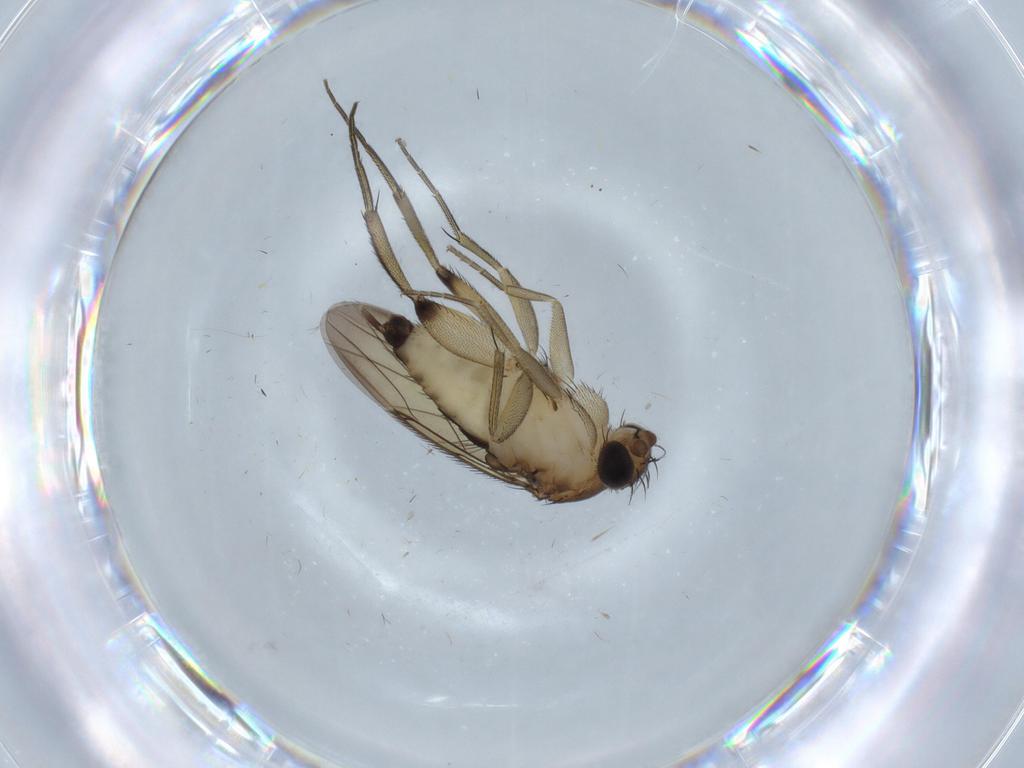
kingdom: Animalia
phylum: Arthropoda
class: Insecta
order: Diptera
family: Phoridae
